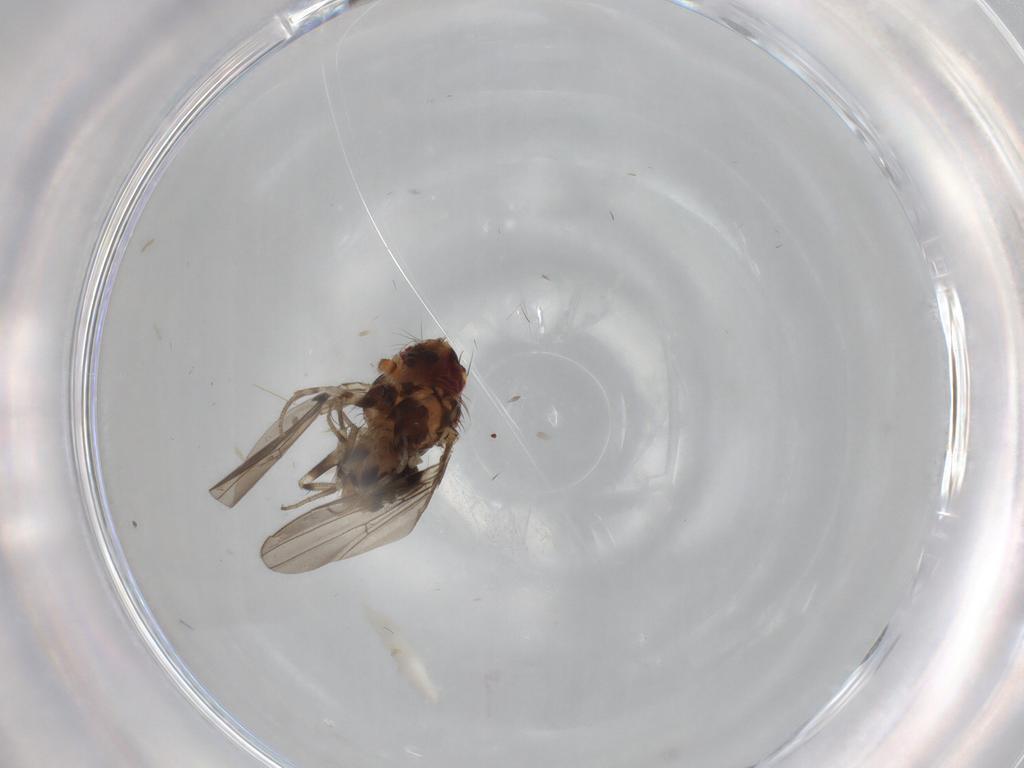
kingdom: Animalia
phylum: Arthropoda
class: Insecta
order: Diptera
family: Drosophilidae
